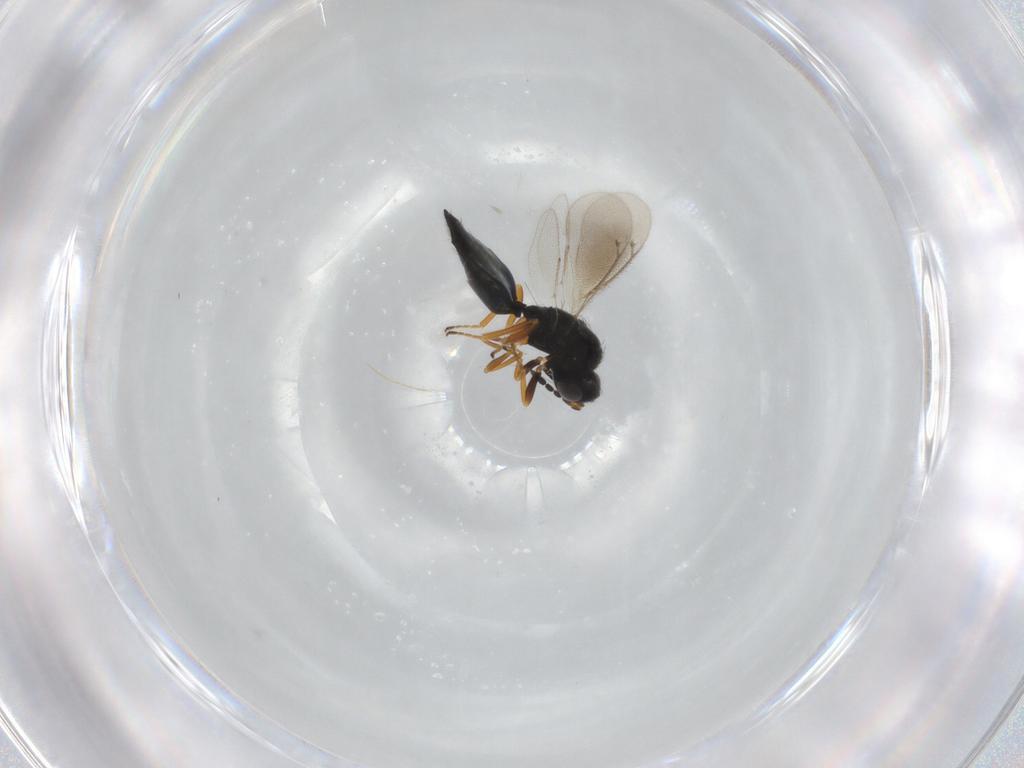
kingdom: Animalia
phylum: Arthropoda
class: Insecta
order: Hymenoptera
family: Eulophidae
